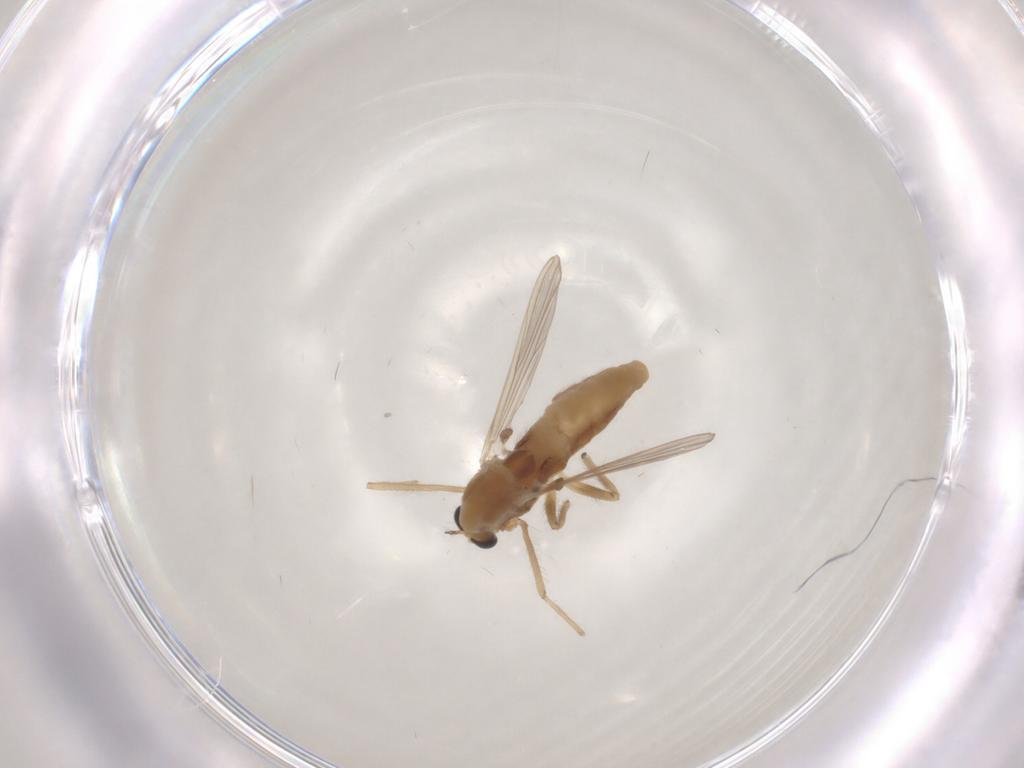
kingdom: Animalia
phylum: Arthropoda
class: Insecta
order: Diptera
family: Chironomidae
